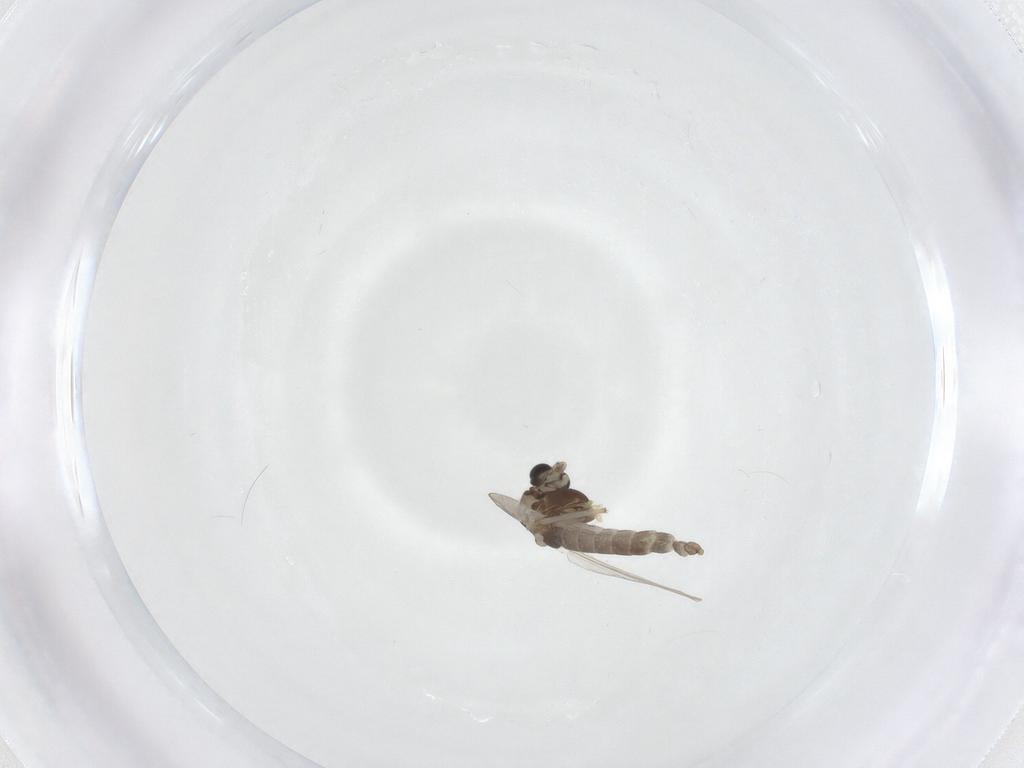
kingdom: Animalia
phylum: Arthropoda
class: Insecta
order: Diptera
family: Chironomidae
